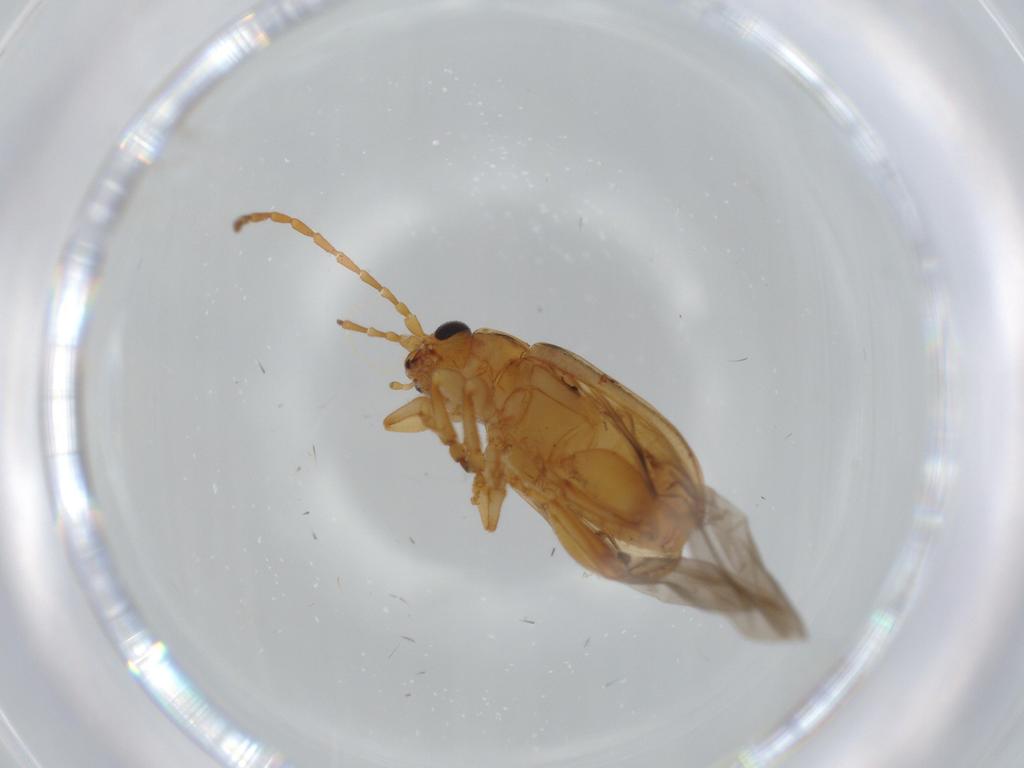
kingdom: Animalia
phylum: Arthropoda
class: Insecta
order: Coleoptera
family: Chrysomelidae
